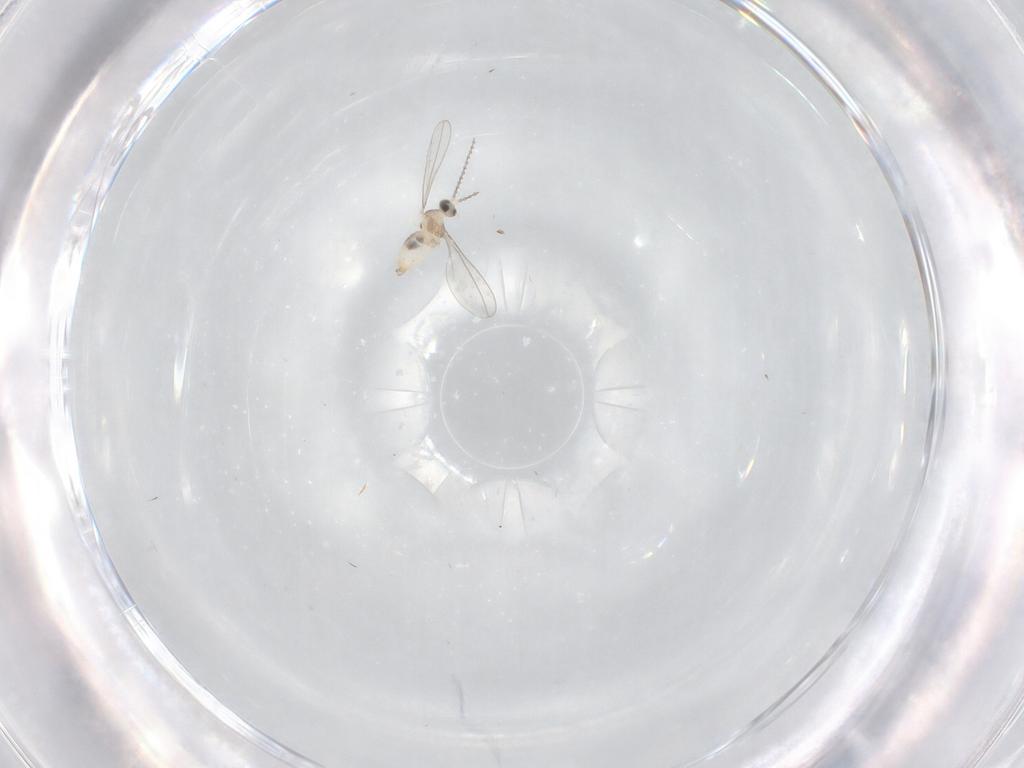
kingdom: Animalia
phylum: Arthropoda
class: Insecta
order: Diptera
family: Cecidomyiidae
